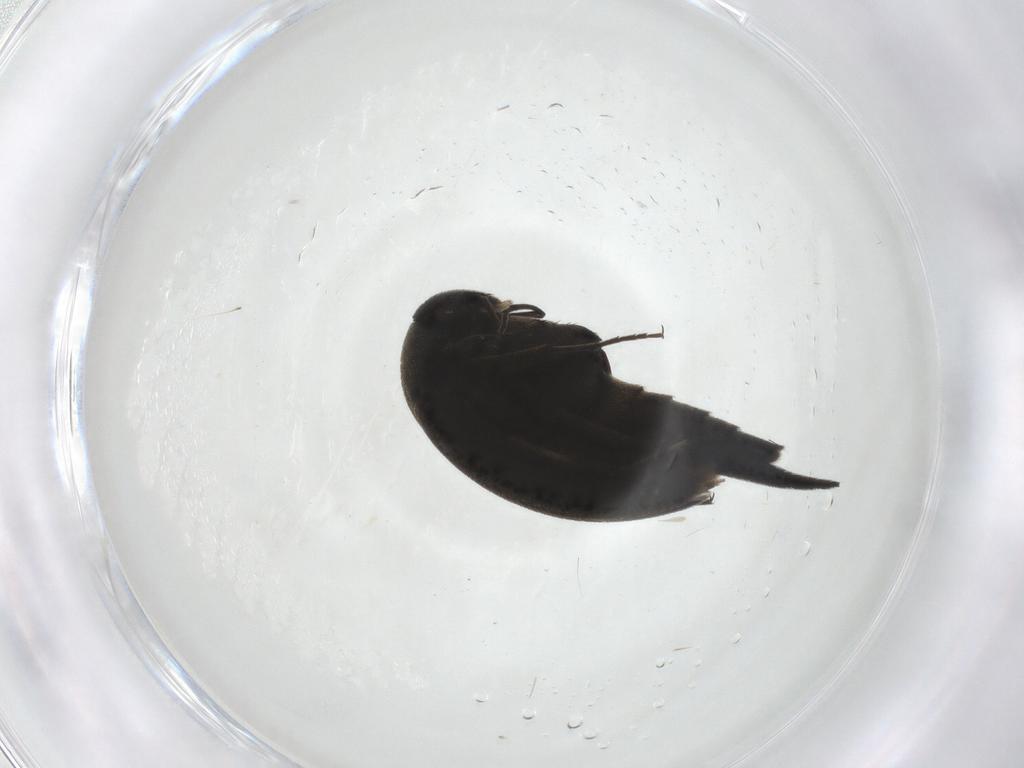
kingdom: Animalia
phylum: Arthropoda
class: Insecta
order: Coleoptera
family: Mordellidae
